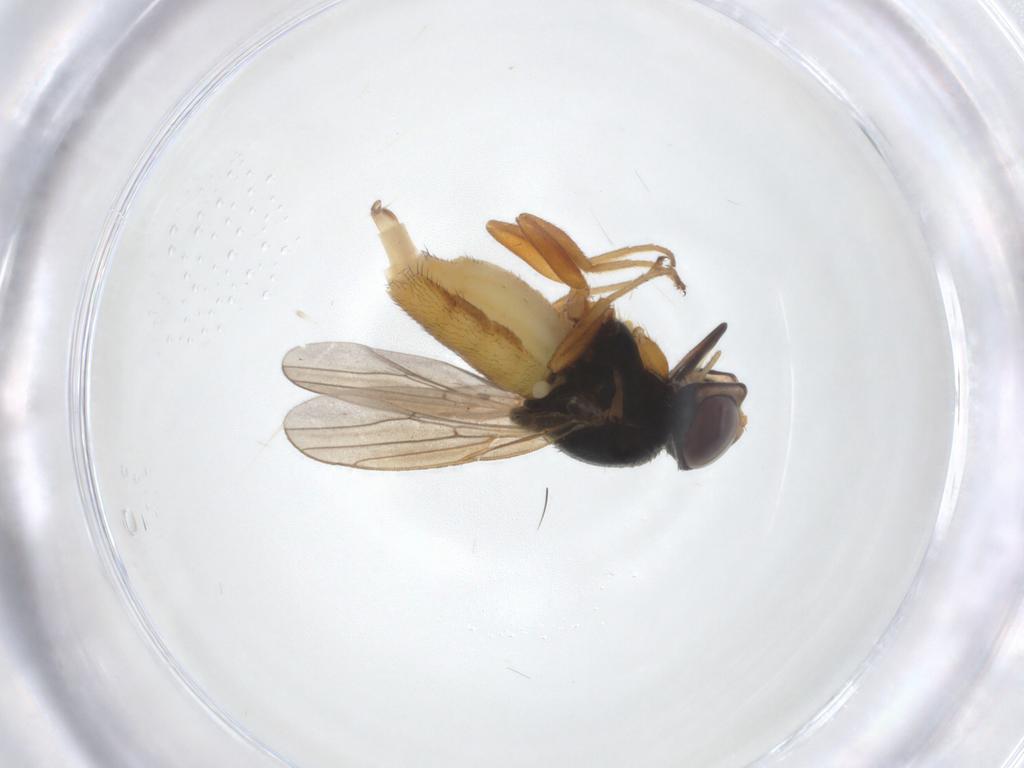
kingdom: Animalia
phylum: Arthropoda
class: Insecta
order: Diptera
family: Chloropidae
